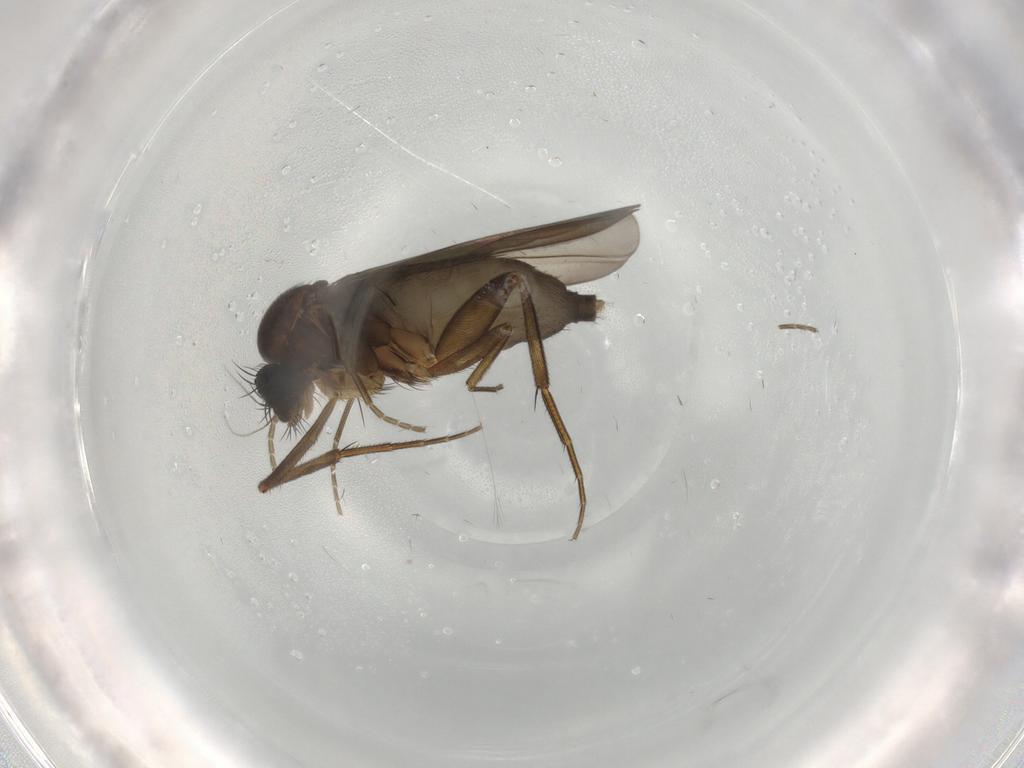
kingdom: Animalia
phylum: Arthropoda
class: Insecta
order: Diptera
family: Phoridae
